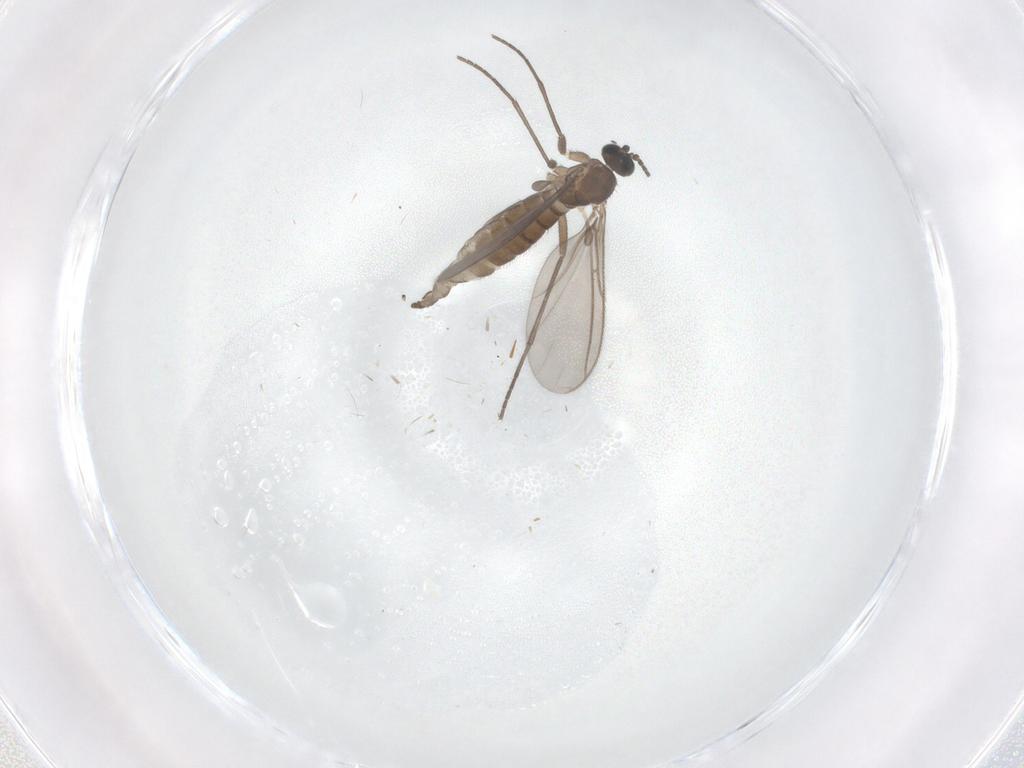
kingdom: Animalia
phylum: Arthropoda
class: Insecta
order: Diptera
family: Sciaridae
